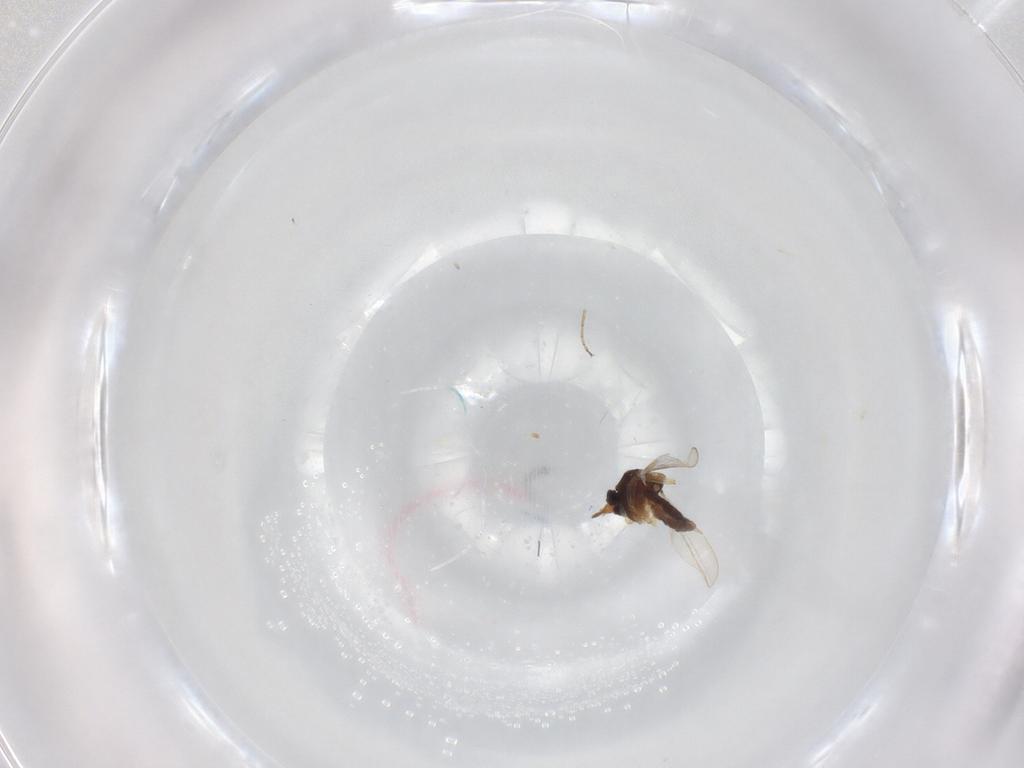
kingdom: Animalia
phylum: Arthropoda
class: Insecta
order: Diptera
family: Ceratopogonidae
